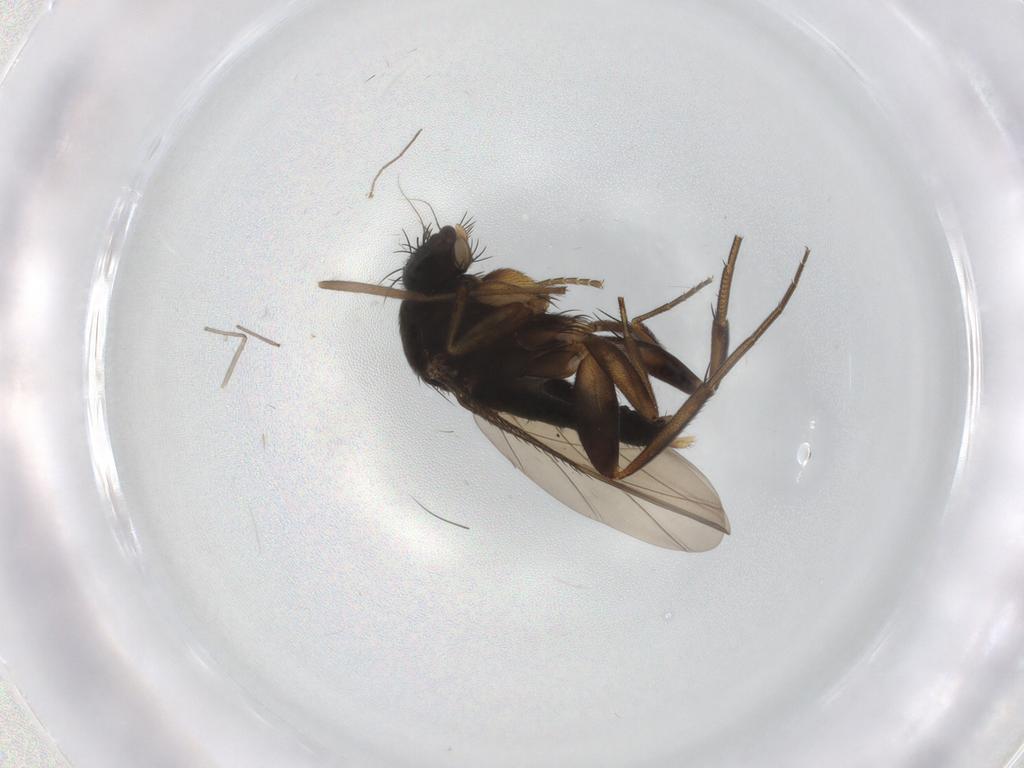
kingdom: Animalia
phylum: Arthropoda
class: Insecta
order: Diptera
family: Phoridae
